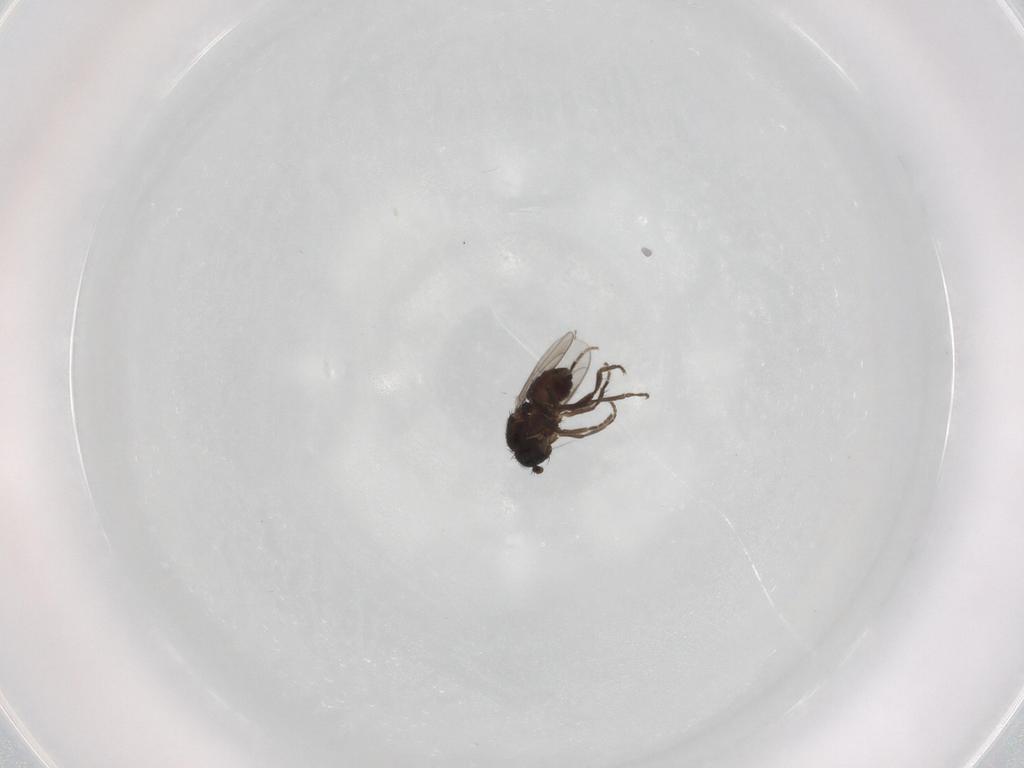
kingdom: Animalia
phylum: Arthropoda
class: Insecta
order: Diptera
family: Cecidomyiidae
